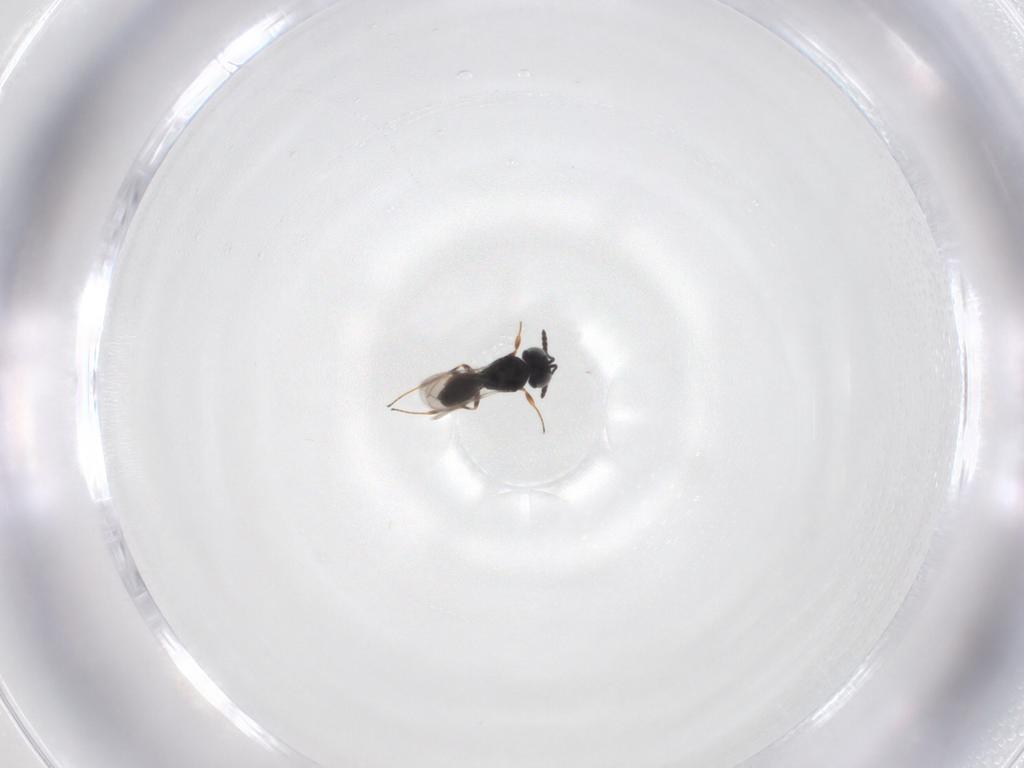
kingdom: Animalia
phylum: Arthropoda
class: Insecta
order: Hymenoptera
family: Scelionidae
